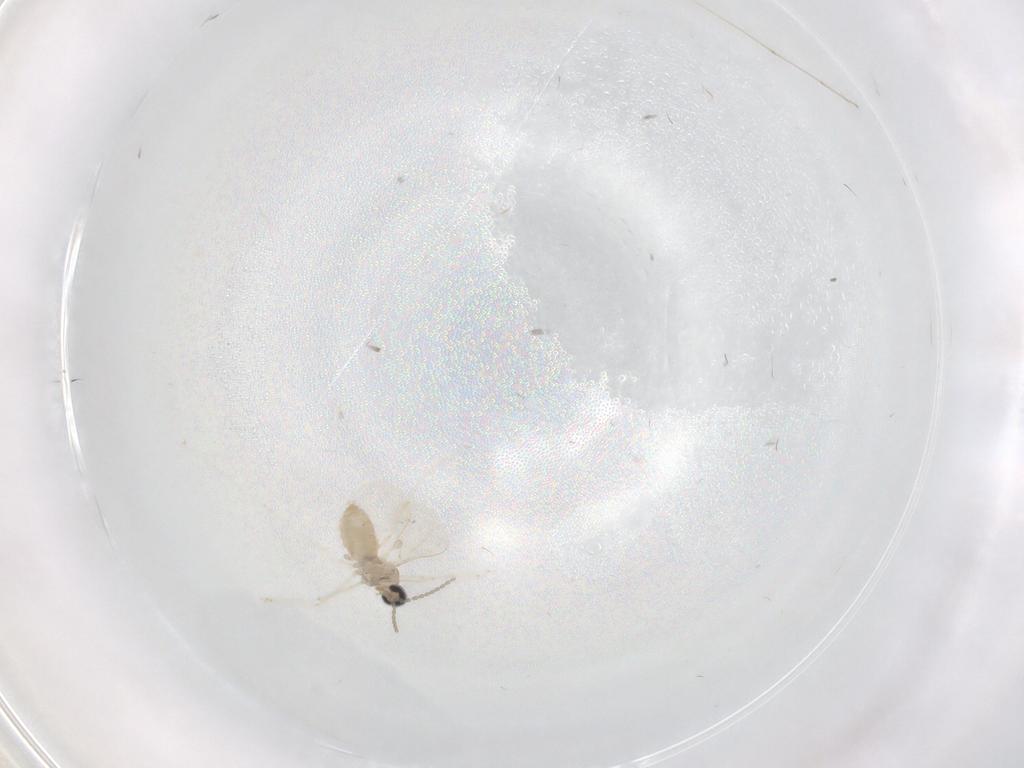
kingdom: Animalia
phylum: Arthropoda
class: Insecta
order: Diptera
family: Cecidomyiidae
